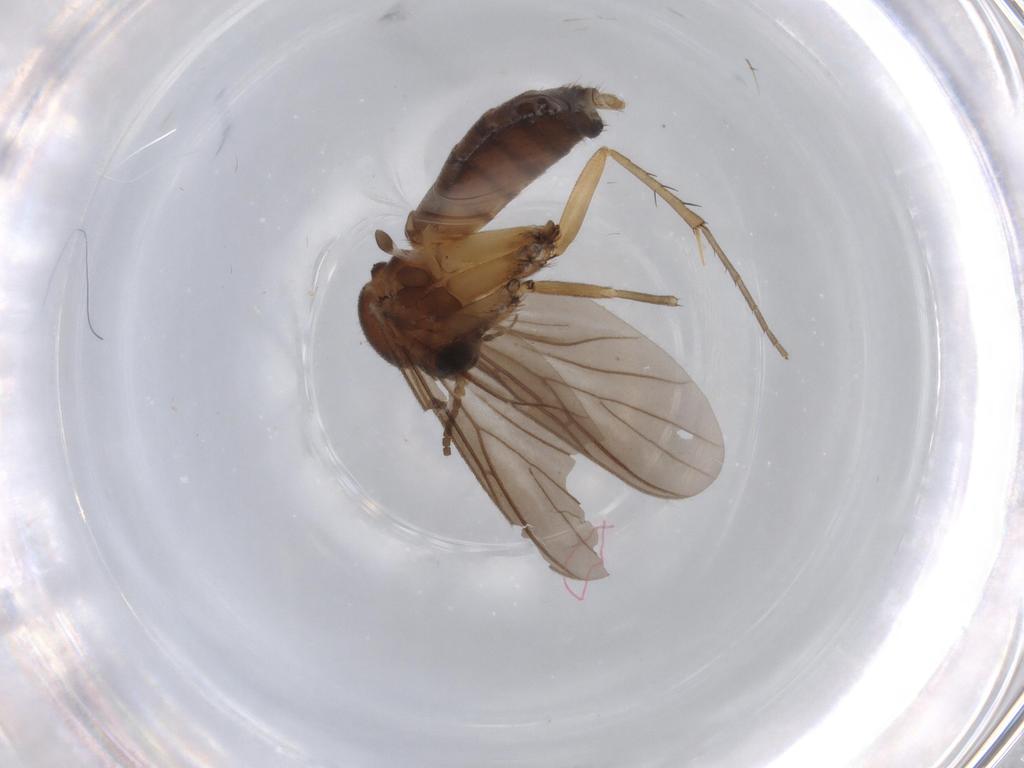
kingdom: Animalia
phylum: Arthropoda
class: Insecta
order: Diptera
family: Mycetophilidae
